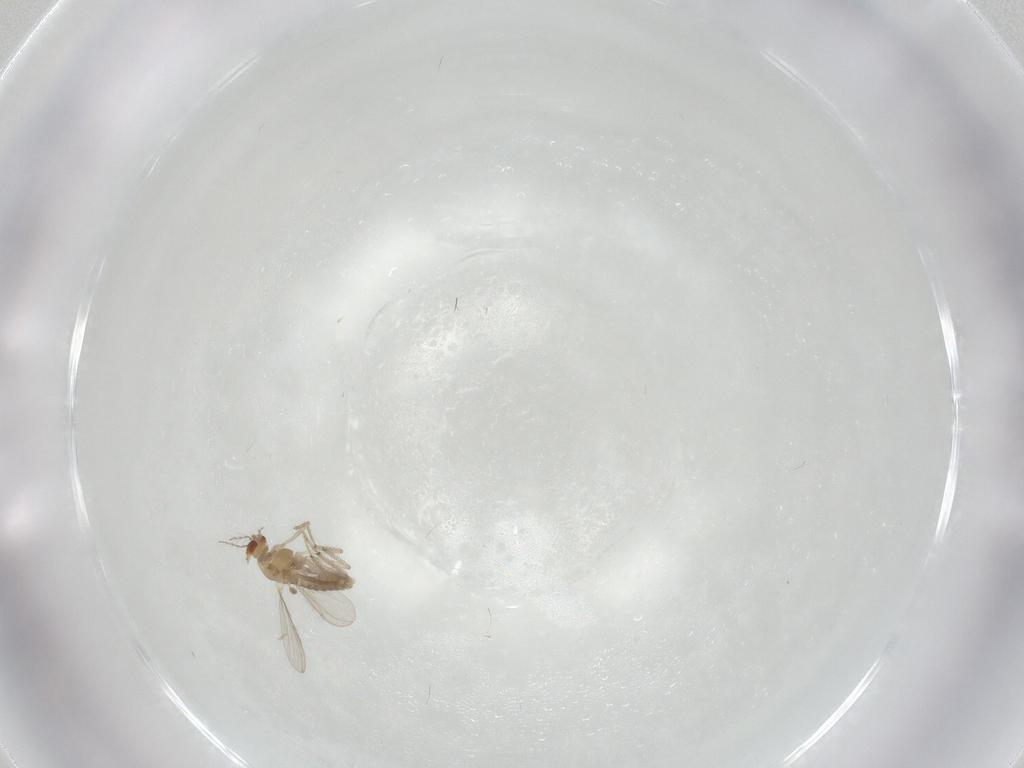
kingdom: Animalia
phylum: Arthropoda
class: Insecta
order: Diptera
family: Chironomidae
